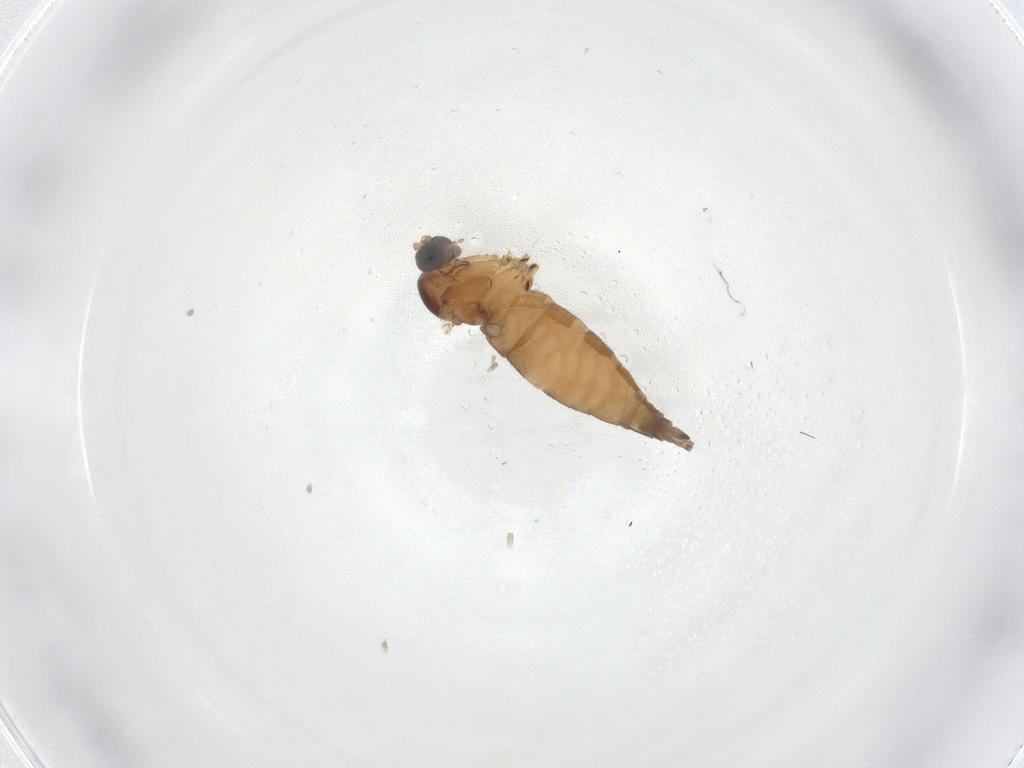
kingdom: Animalia
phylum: Arthropoda
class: Insecta
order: Diptera
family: Sciaridae
